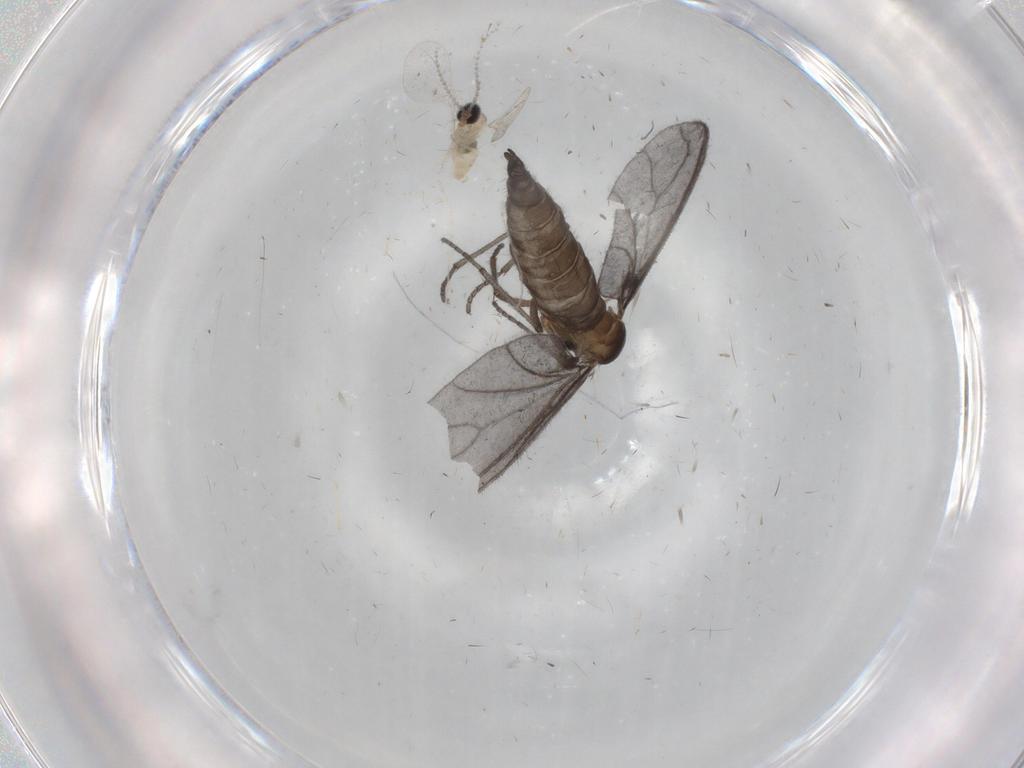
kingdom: Animalia
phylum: Arthropoda
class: Insecta
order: Diptera
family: Sciaridae
